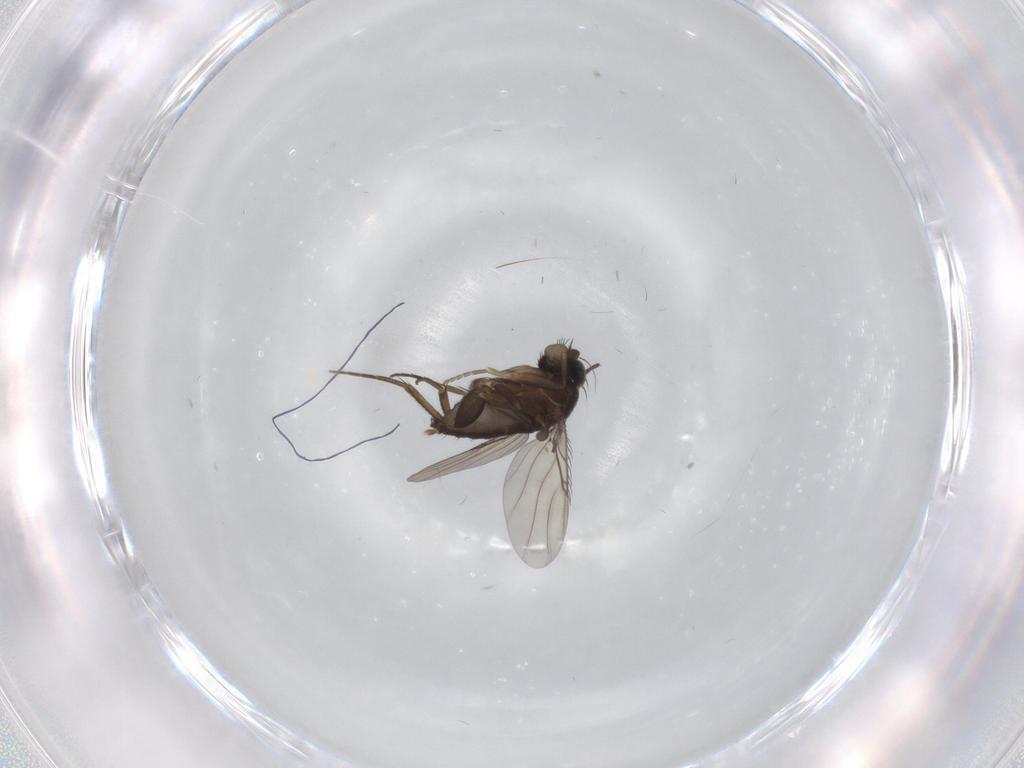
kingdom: Animalia
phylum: Arthropoda
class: Insecta
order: Diptera
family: Phoridae
